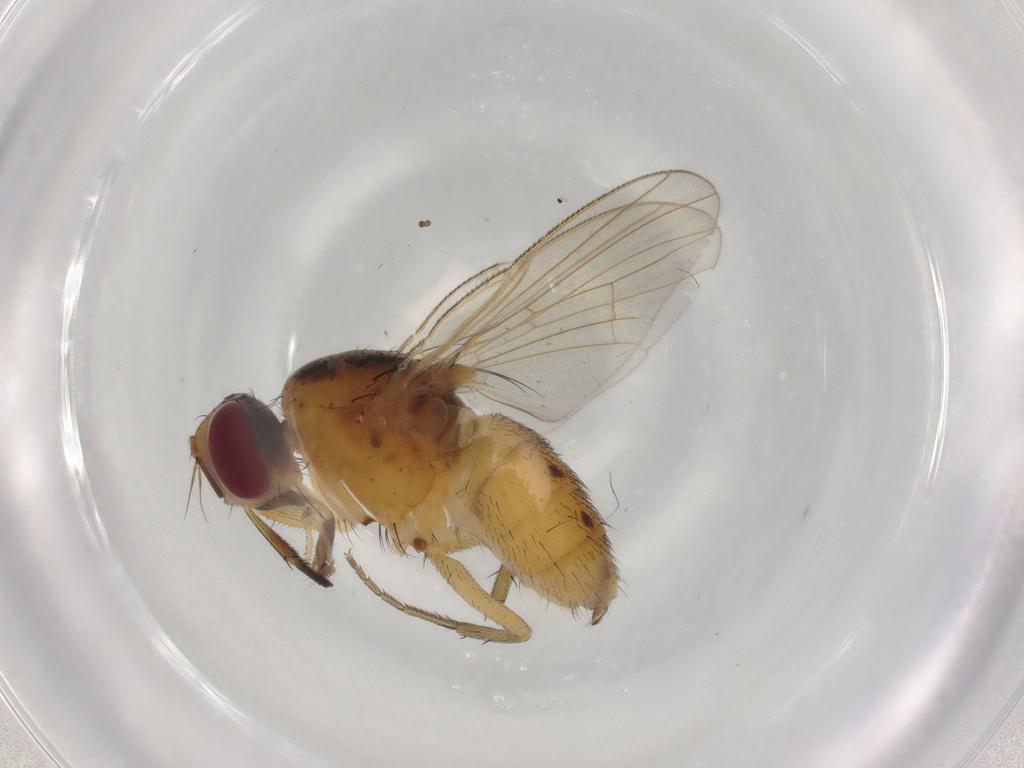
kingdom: Animalia
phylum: Arthropoda
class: Insecta
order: Diptera
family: Muscidae
